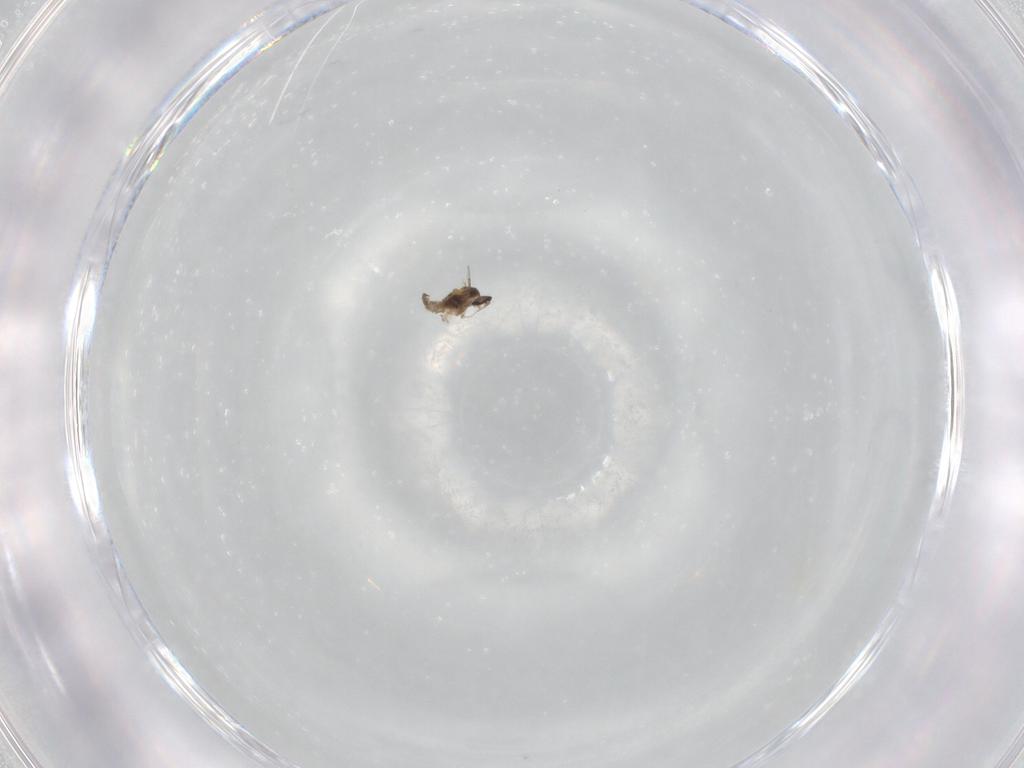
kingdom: Animalia
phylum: Arthropoda
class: Insecta
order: Diptera
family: Cecidomyiidae
